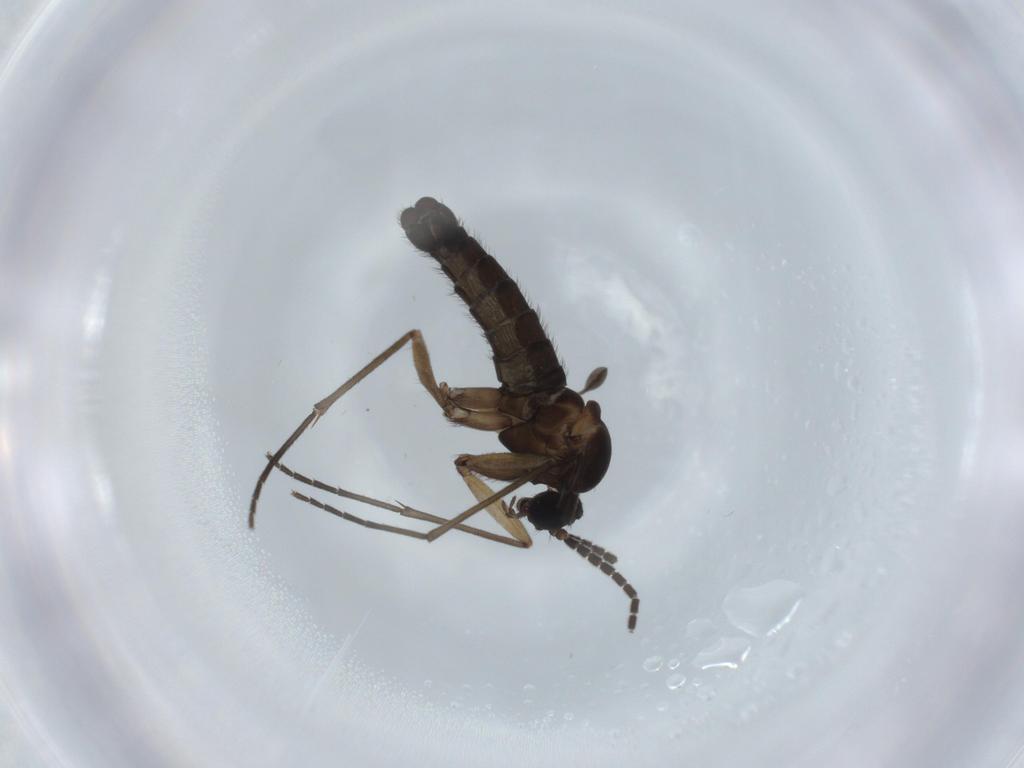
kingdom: Animalia
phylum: Arthropoda
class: Insecta
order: Diptera
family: Sciaridae
